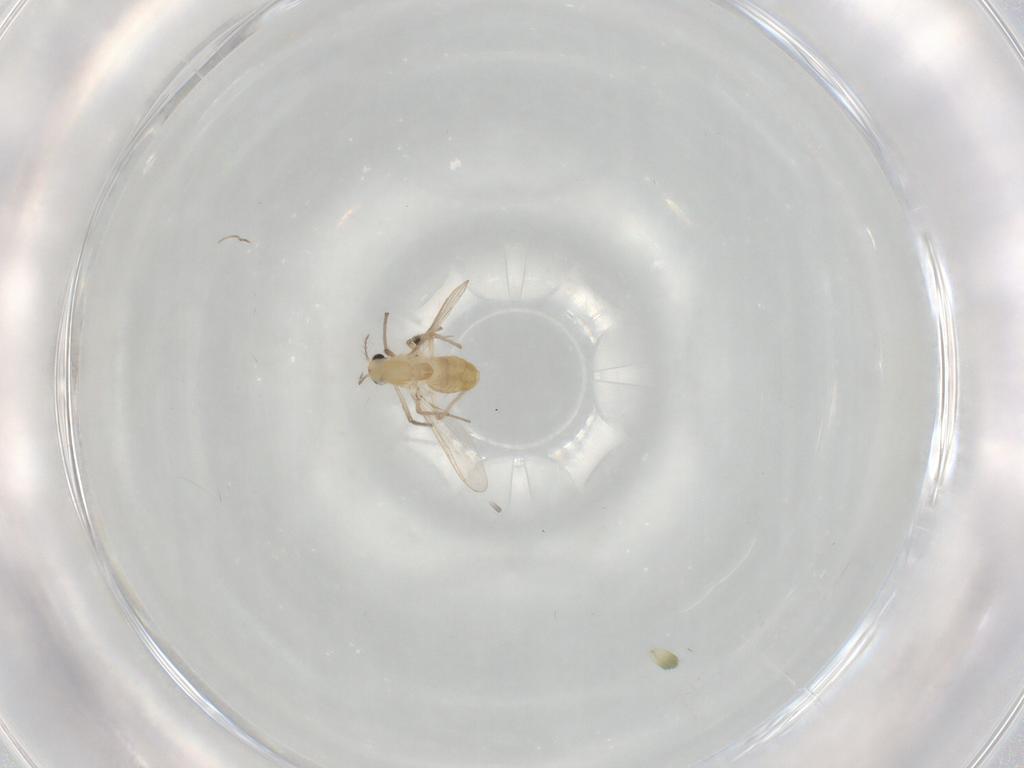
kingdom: Animalia
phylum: Arthropoda
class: Insecta
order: Diptera
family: Chironomidae
